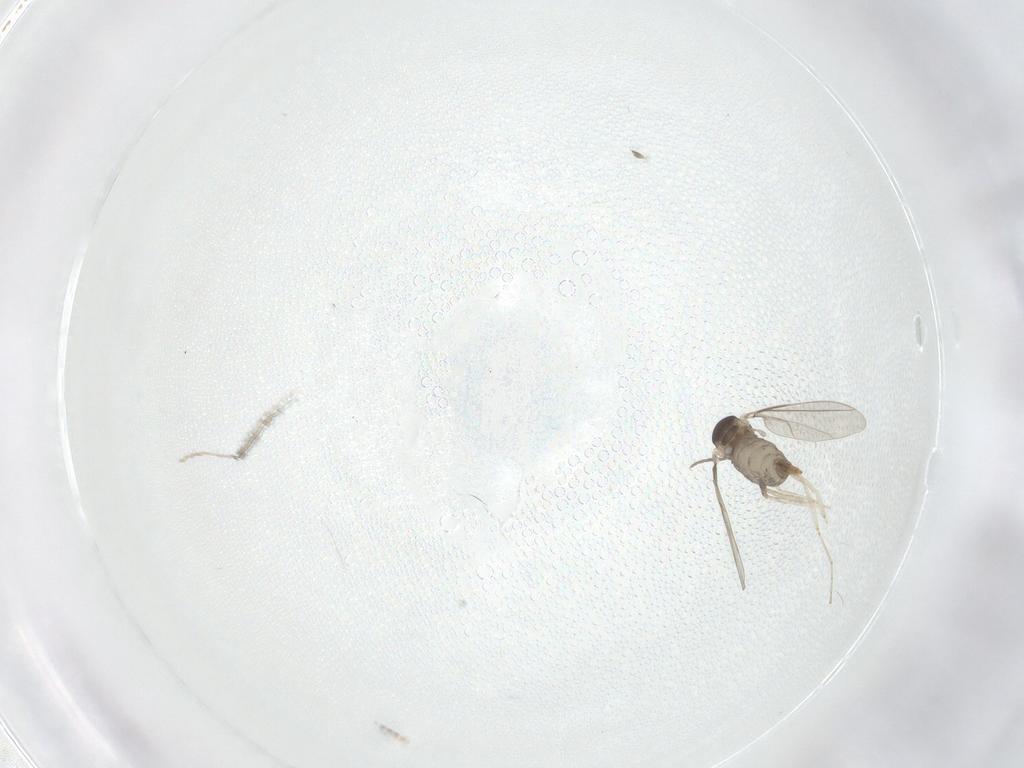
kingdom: Animalia
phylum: Arthropoda
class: Insecta
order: Diptera
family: Phoridae
